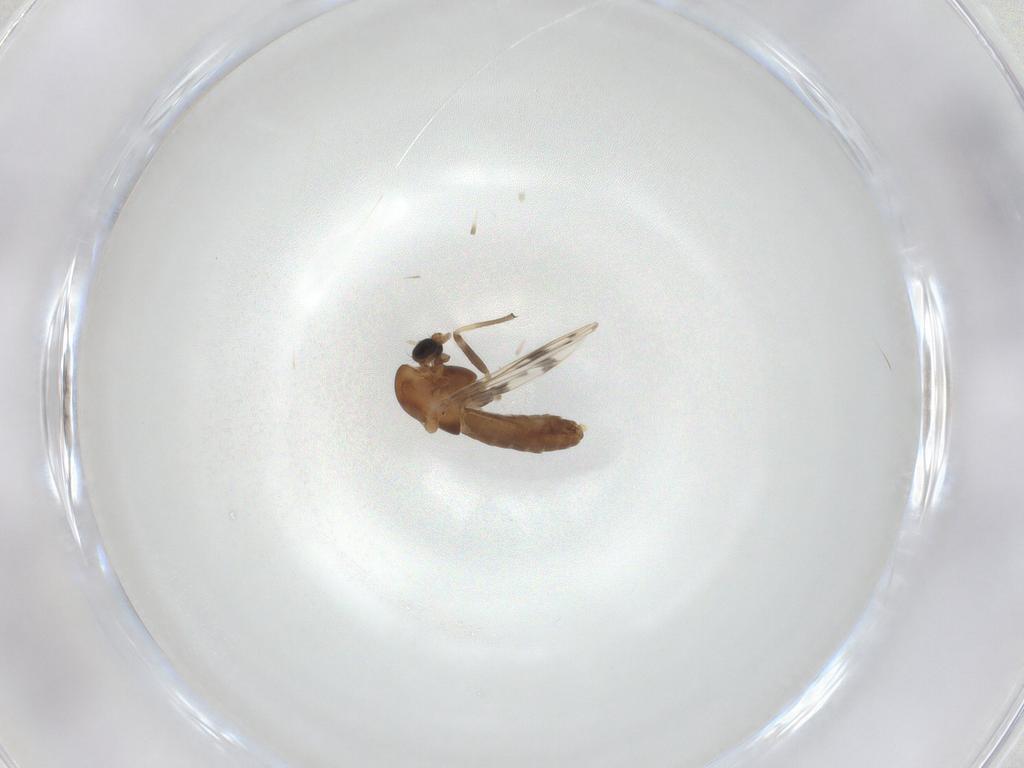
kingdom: Animalia
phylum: Arthropoda
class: Insecta
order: Diptera
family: Chironomidae
